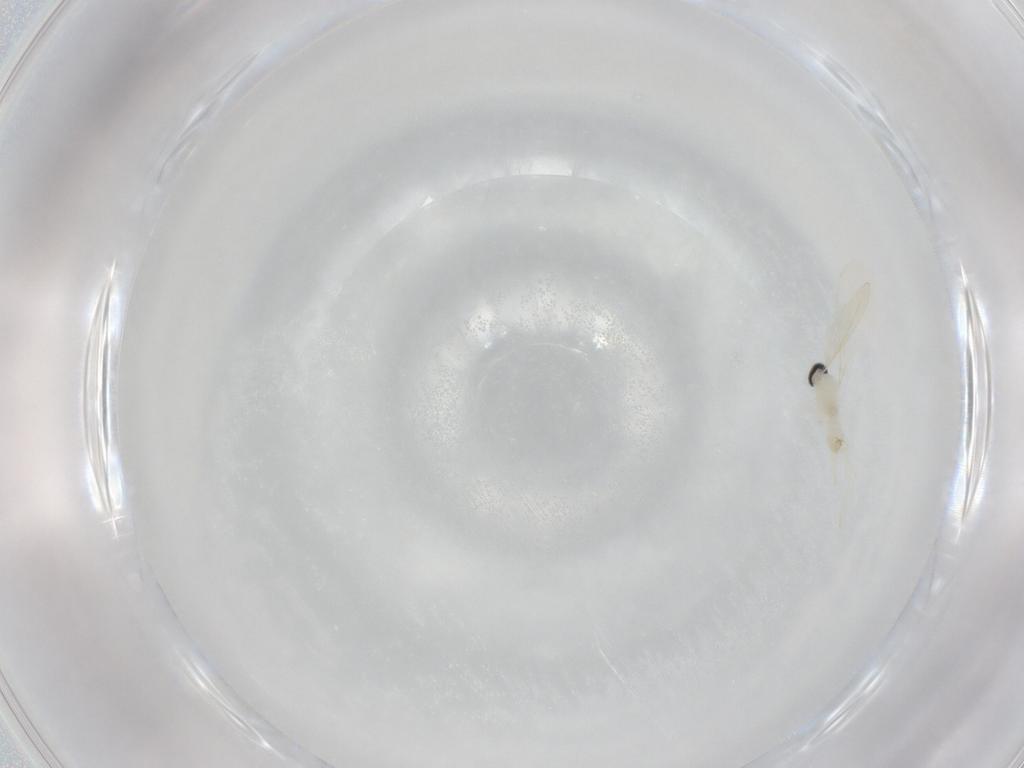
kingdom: Animalia
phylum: Arthropoda
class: Insecta
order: Diptera
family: Cecidomyiidae
